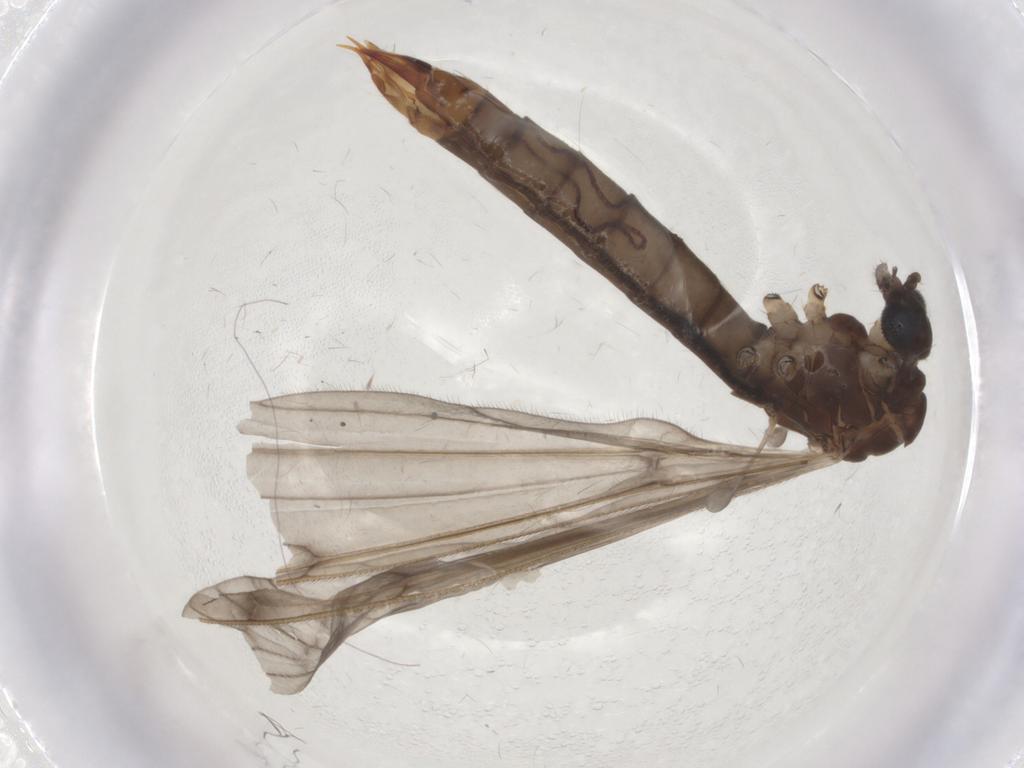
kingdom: Animalia
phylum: Arthropoda
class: Insecta
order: Diptera
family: Limoniidae
